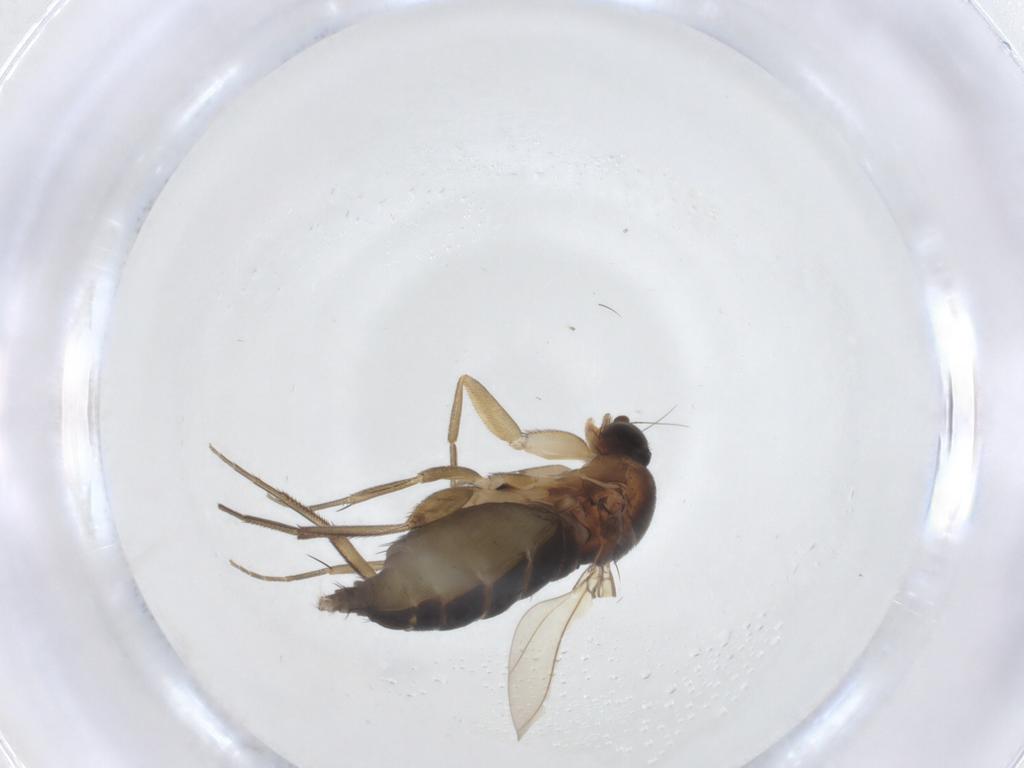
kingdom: Animalia
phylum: Arthropoda
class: Insecta
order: Diptera
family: Phoridae
